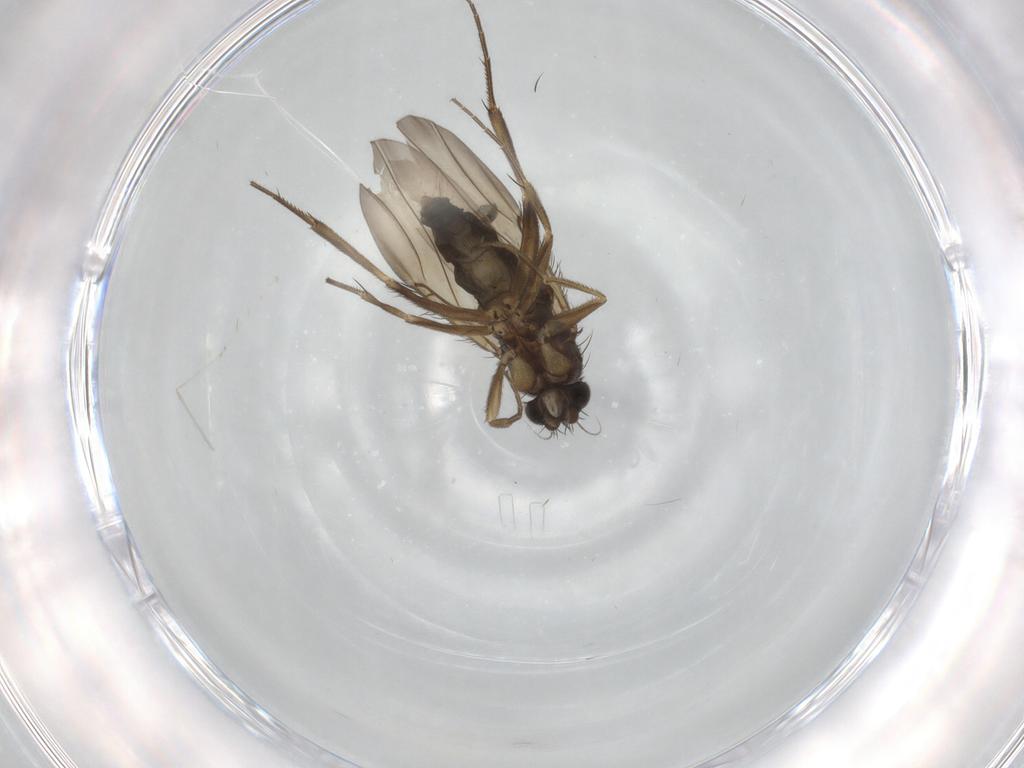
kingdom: Animalia
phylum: Arthropoda
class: Insecta
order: Diptera
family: Phoridae
